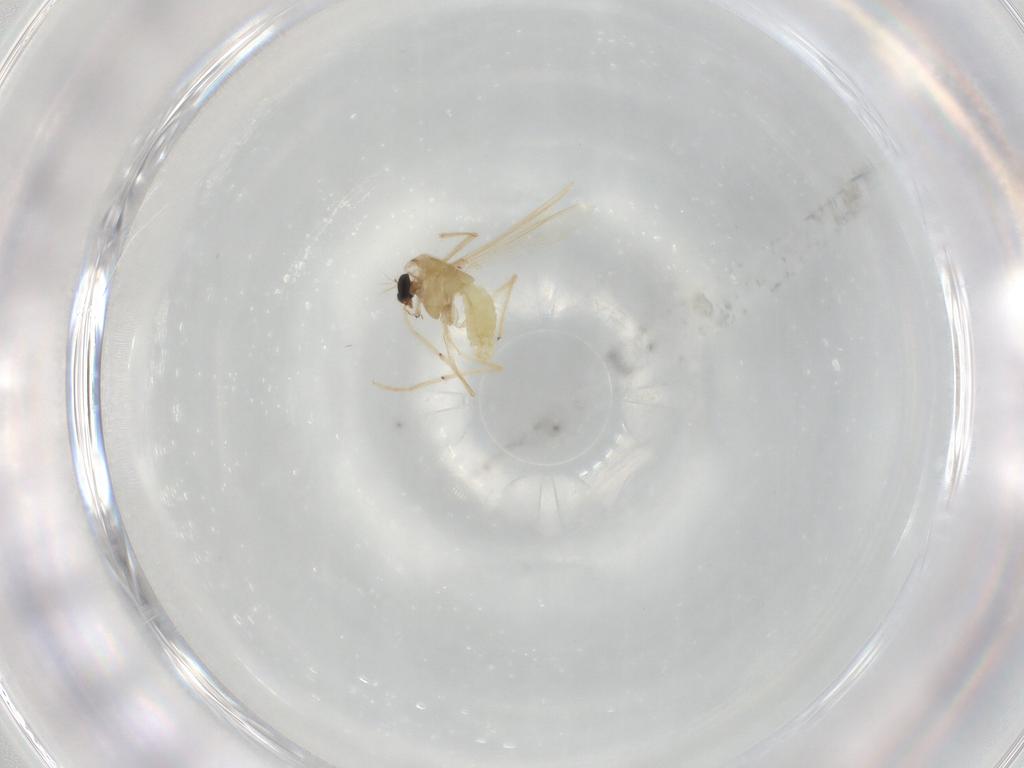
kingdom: Animalia
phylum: Arthropoda
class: Insecta
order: Diptera
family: Chironomidae
